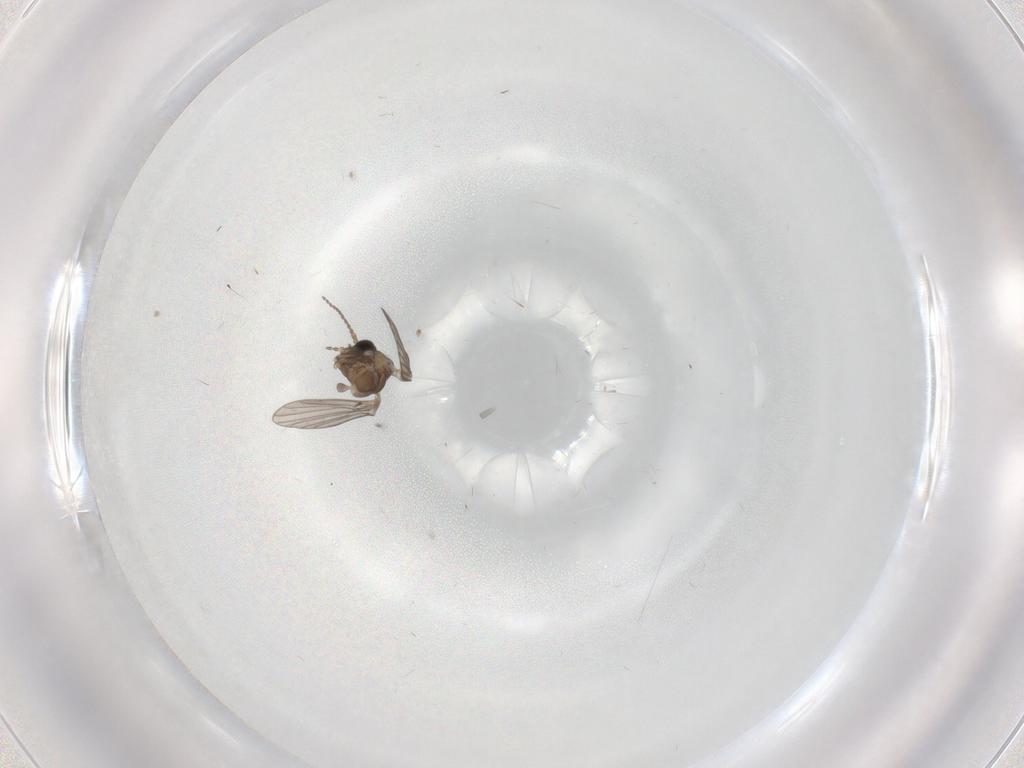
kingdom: Animalia
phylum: Arthropoda
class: Insecta
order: Diptera
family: Cecidomyiidae
